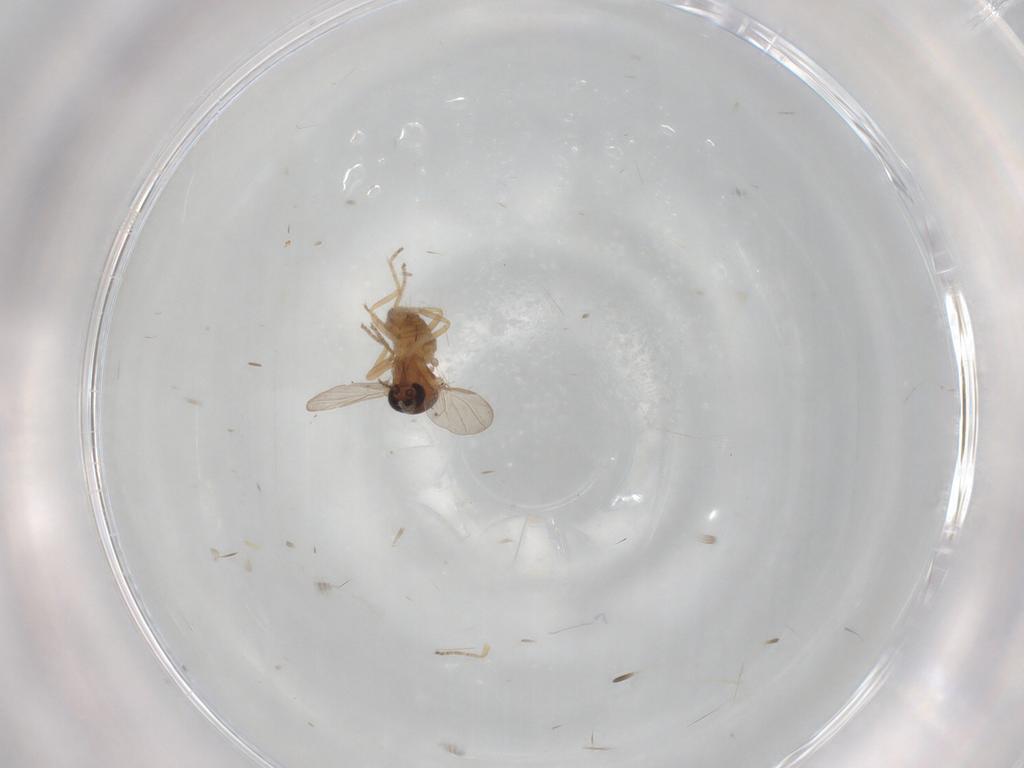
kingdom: Animalia
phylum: Arthropoda
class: Insecta
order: Diptera
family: Ceratopogonidae
